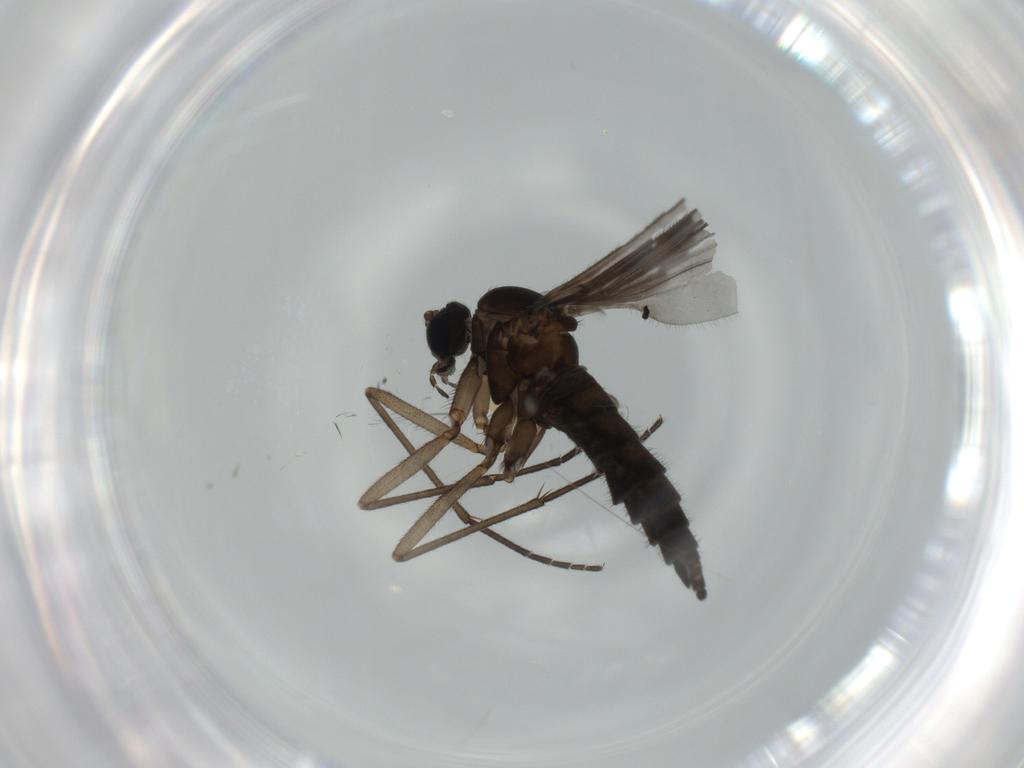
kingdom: Animalia
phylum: Arthropoda
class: Insecta
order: Diptera
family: Sciaridae
